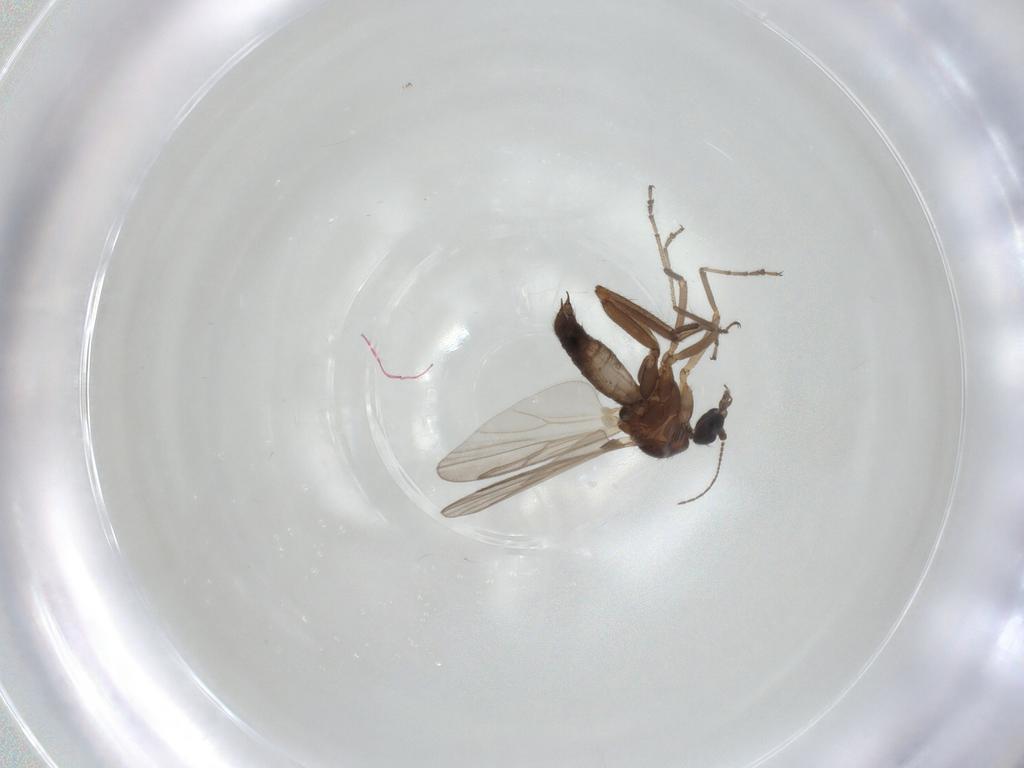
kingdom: Animalia
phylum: Arthropoda
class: Insecta
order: Diptera
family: Ceratopogonidae
